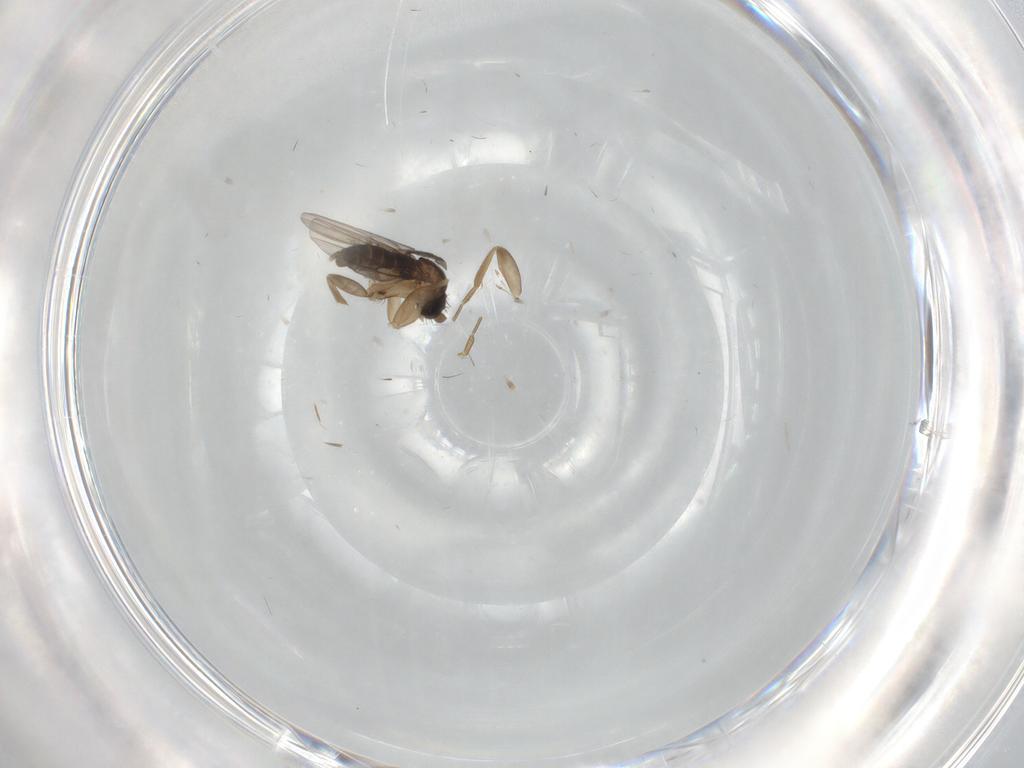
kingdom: Animalia
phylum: Arthropoda
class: Insecta
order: Diptera
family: Phoridae
